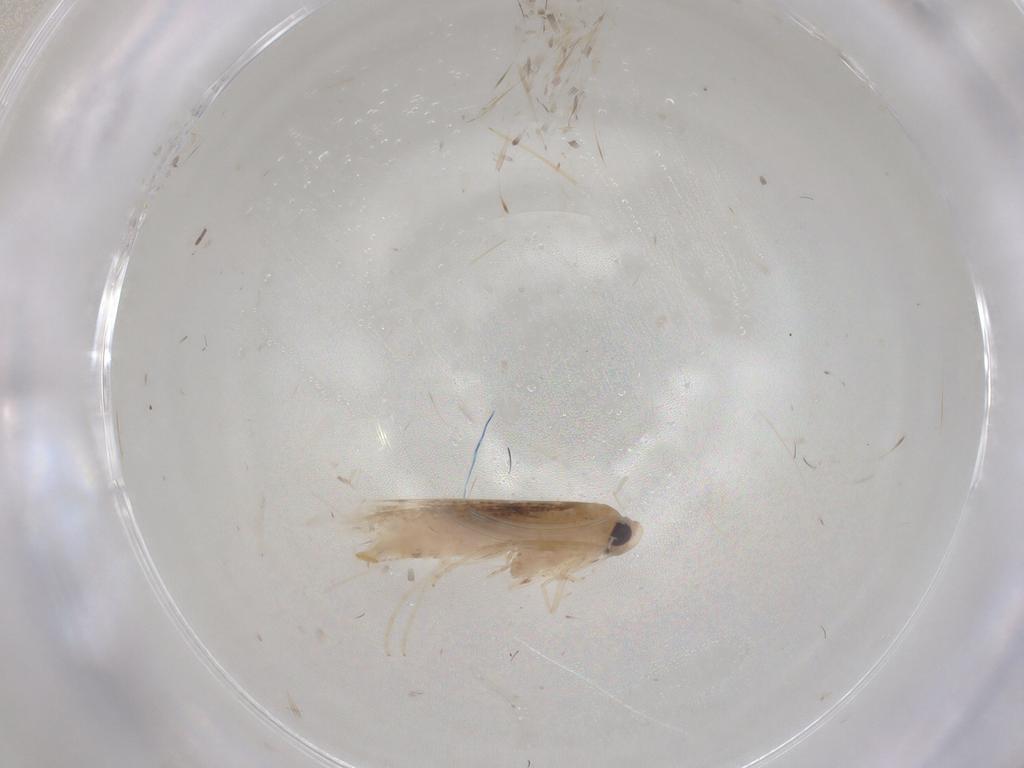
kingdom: Animalia
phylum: Arthropoda
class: Insecta
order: Lepidoptera
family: Gracillariidae
